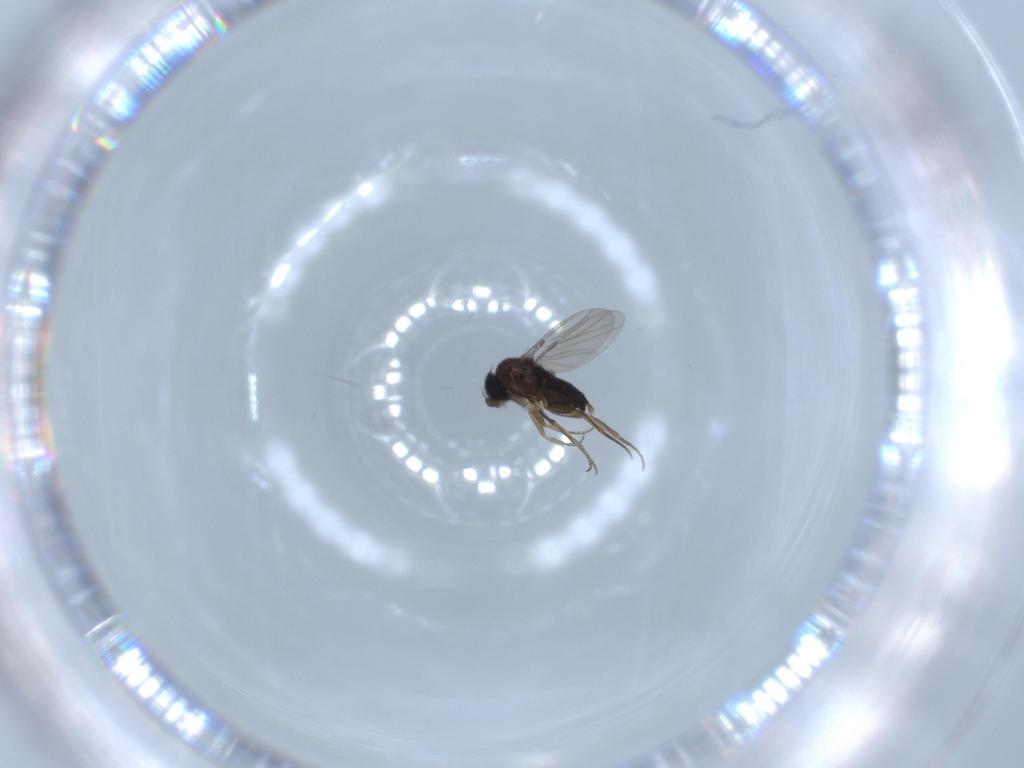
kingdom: Animalia
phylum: Arthropoda
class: Insecta
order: Diptera
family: Phoridae
